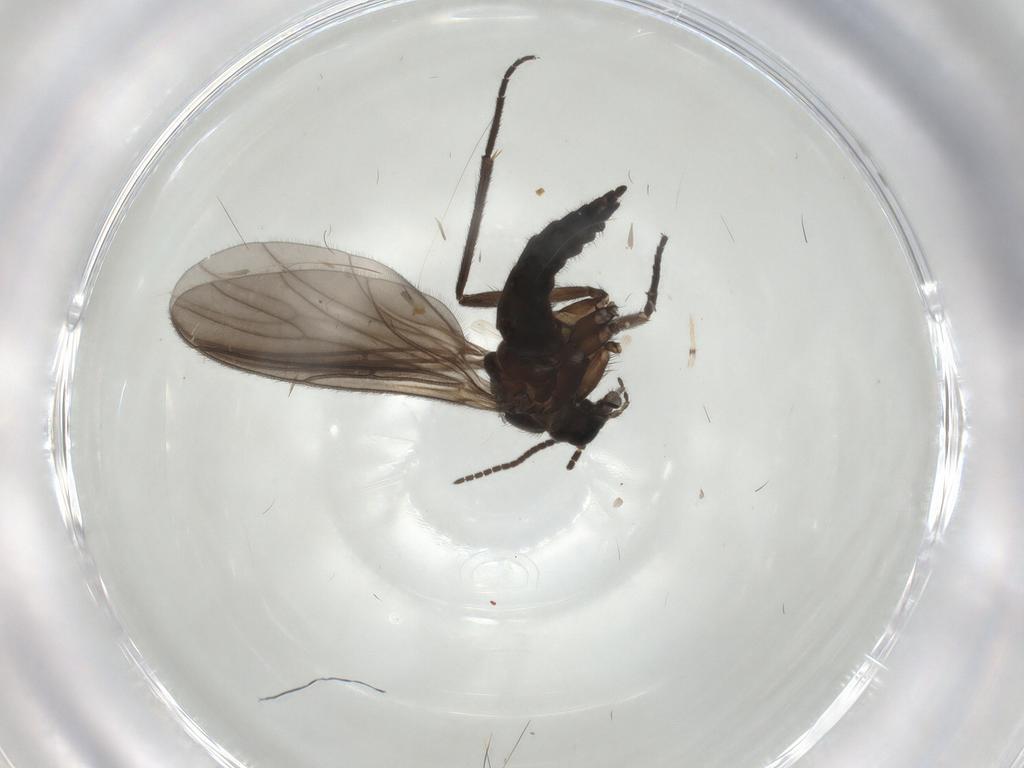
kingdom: Animalia
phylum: Arthropoda
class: Insecta
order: Diptera
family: Sciaridae
